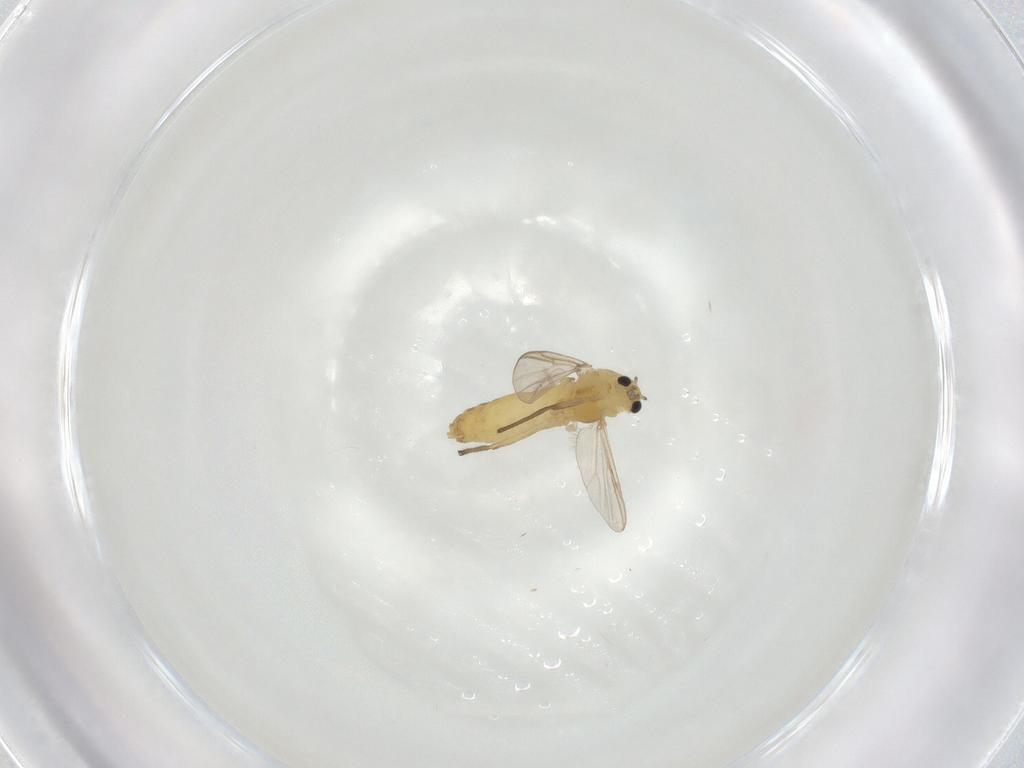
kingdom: Animalia
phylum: Arthropoda
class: Insecta
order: Diptera
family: Chironomidae
